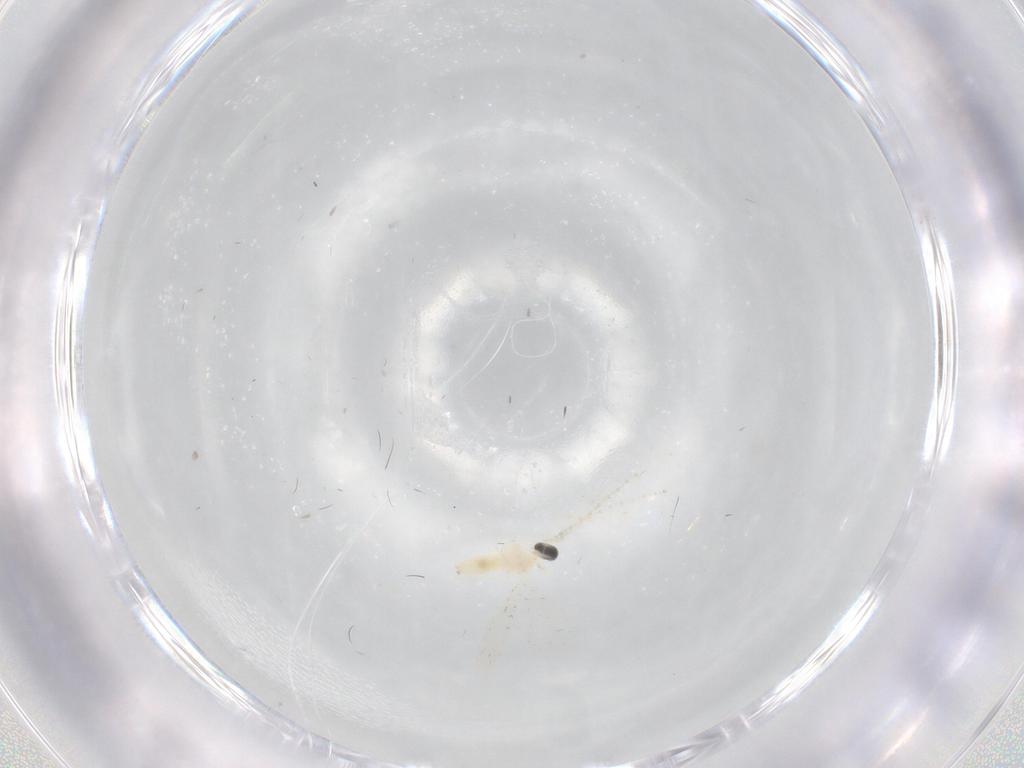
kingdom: Animalia
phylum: Arthropoda
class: Insecta
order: Diptera
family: Cecidomyiidae
